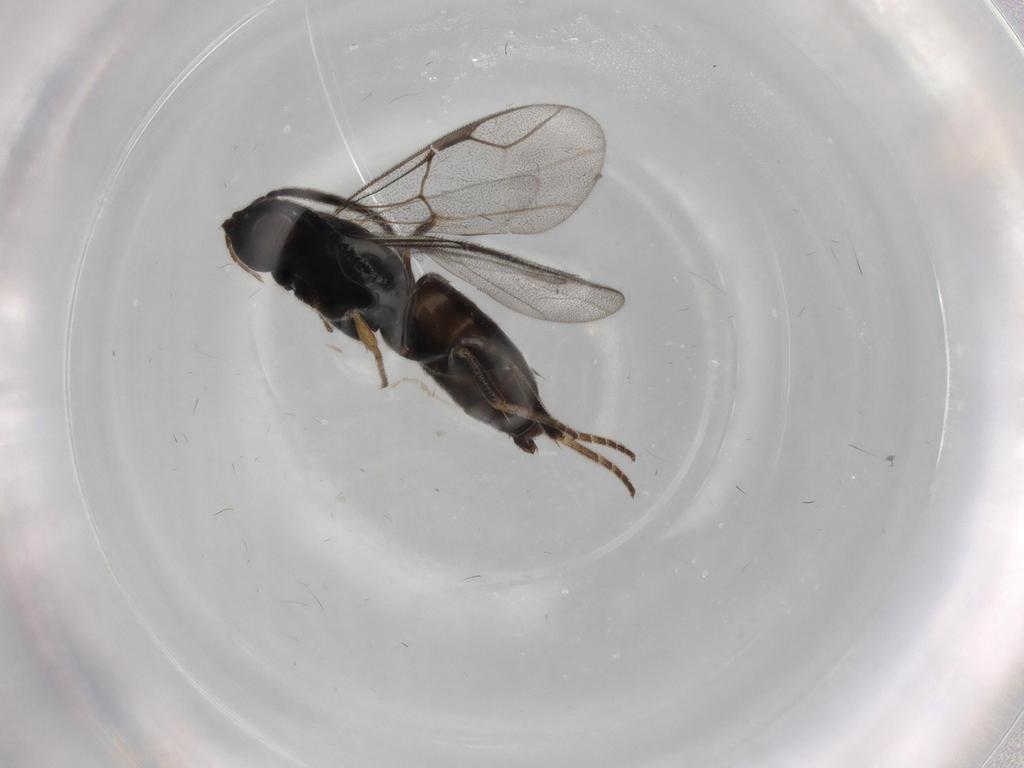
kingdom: Animalia
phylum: Arthropoda
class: Insecta
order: Hymenoptera
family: Dryinidae
